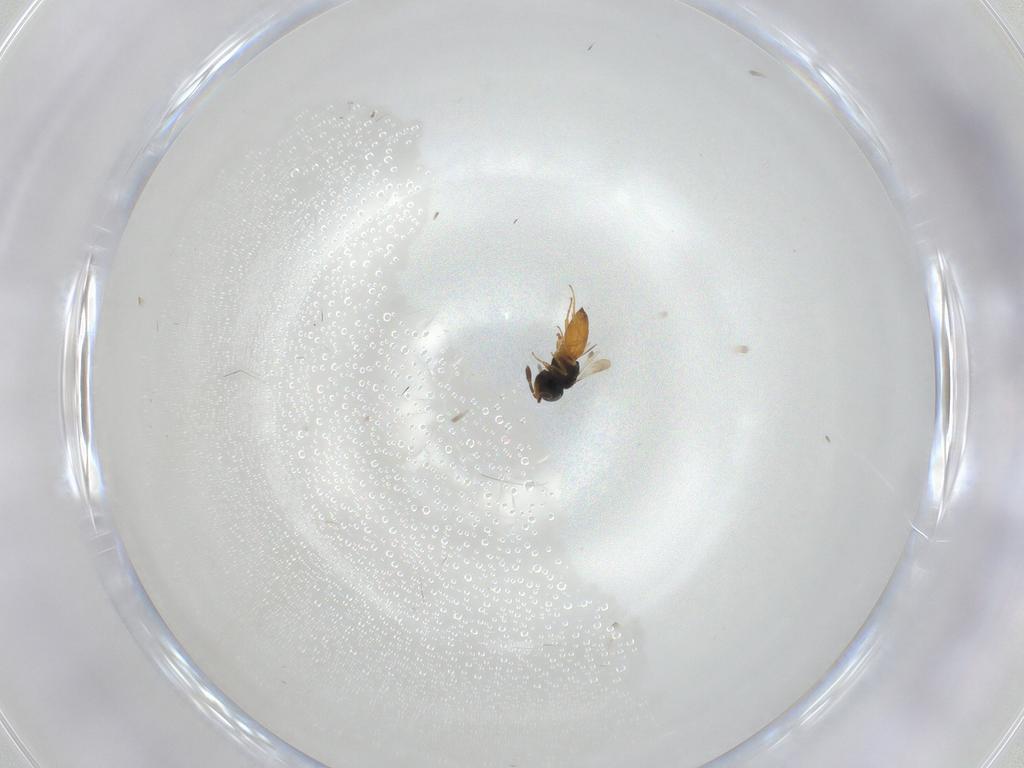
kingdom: Animalia
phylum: Arthropoda
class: Insecta
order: Hymenoptera
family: Scelionidae
